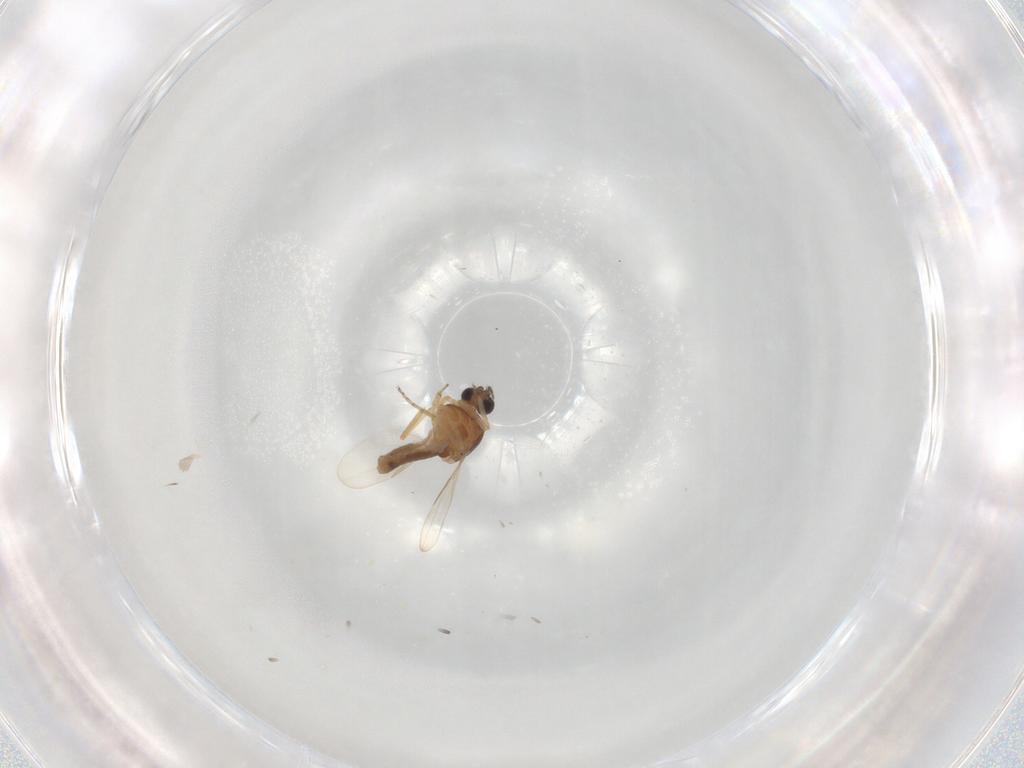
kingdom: Animalia
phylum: Arthropoda
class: Insecta
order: Diptera
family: Ceratopogonidae
